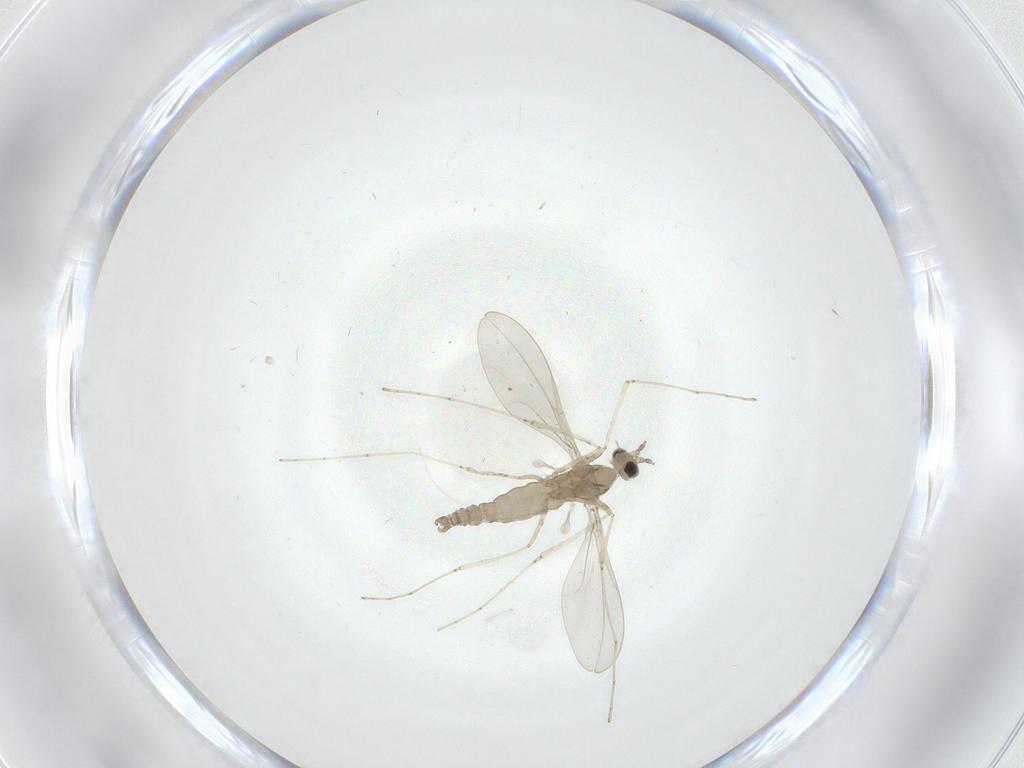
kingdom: Animalia
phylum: Arthropoda
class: Insecta
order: Diptera
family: Cecidomyiidae
